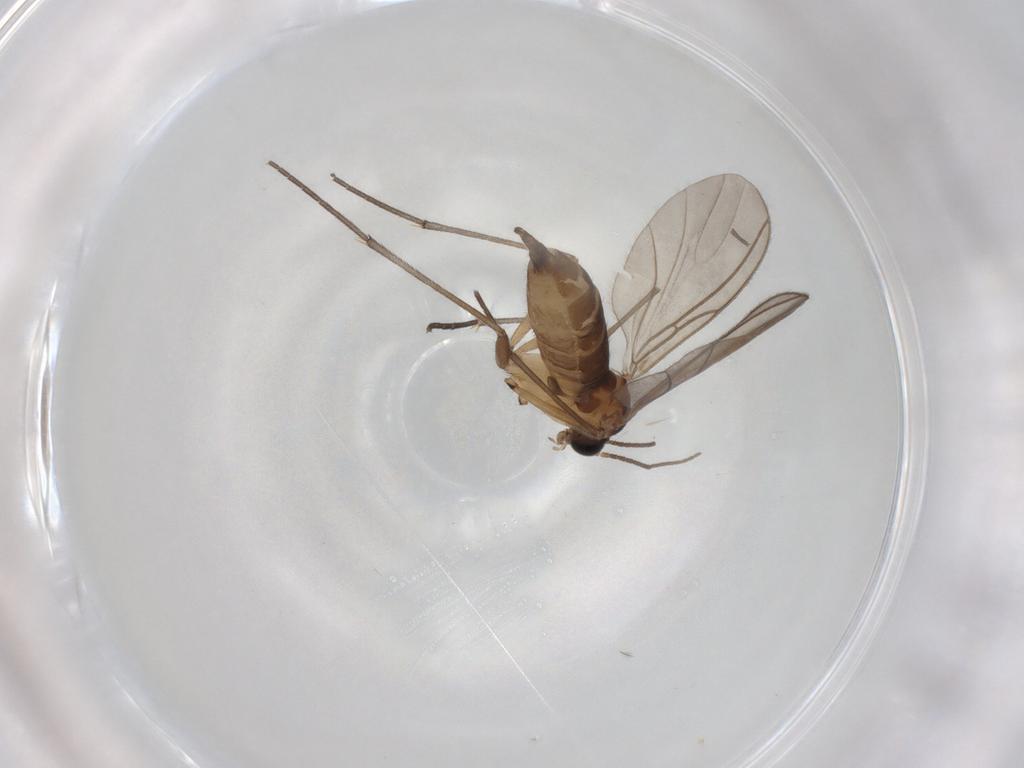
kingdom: Animalia
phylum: Arthropoda
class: Insecta
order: Diptera
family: Sciaridae
